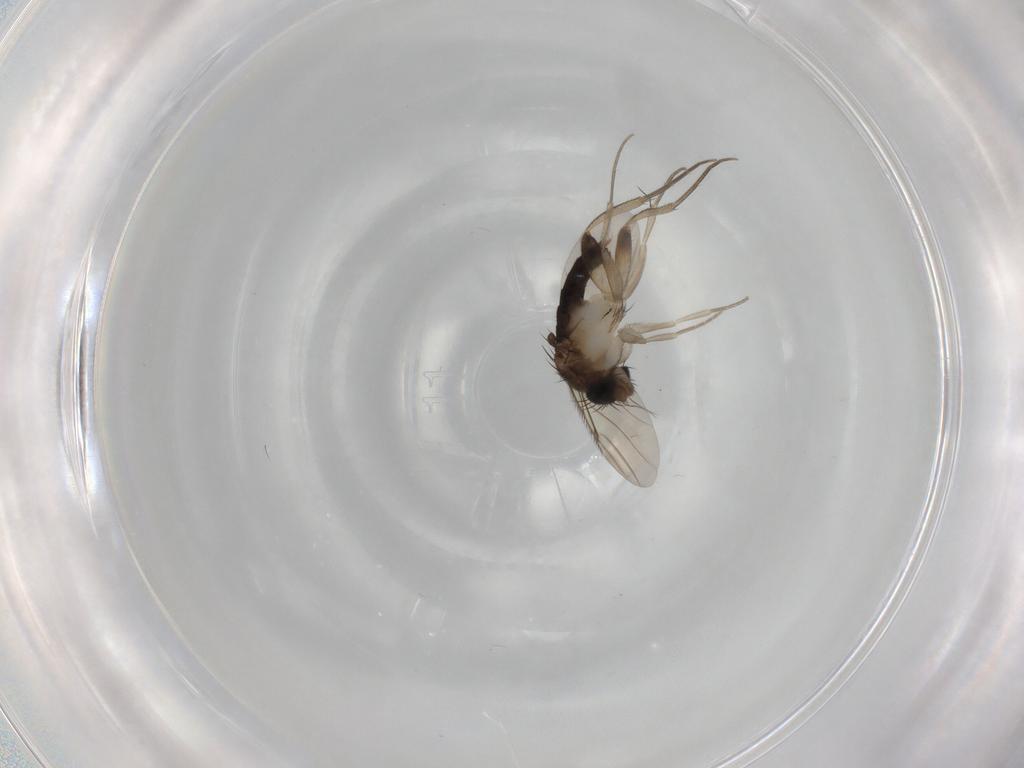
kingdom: Animalia
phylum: Arthropoda
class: Insecta
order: Diptera
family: Phoridae
